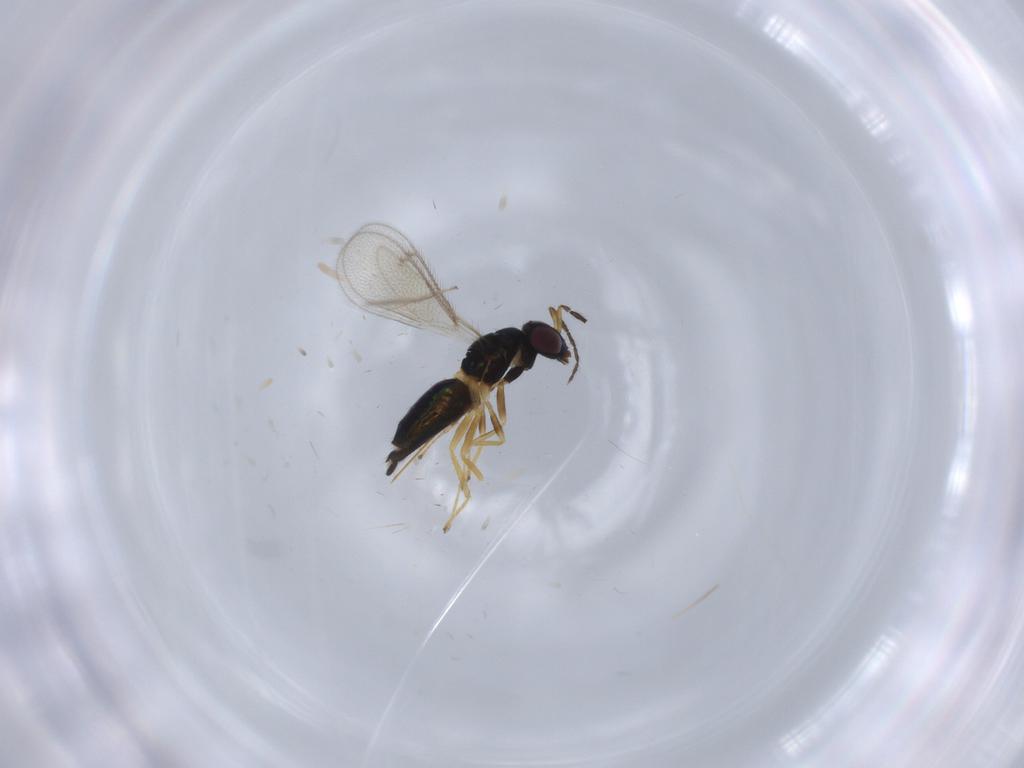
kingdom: Animalia
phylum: Arthropoda
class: Insecta
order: Hymenoptera
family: Eulophidae
